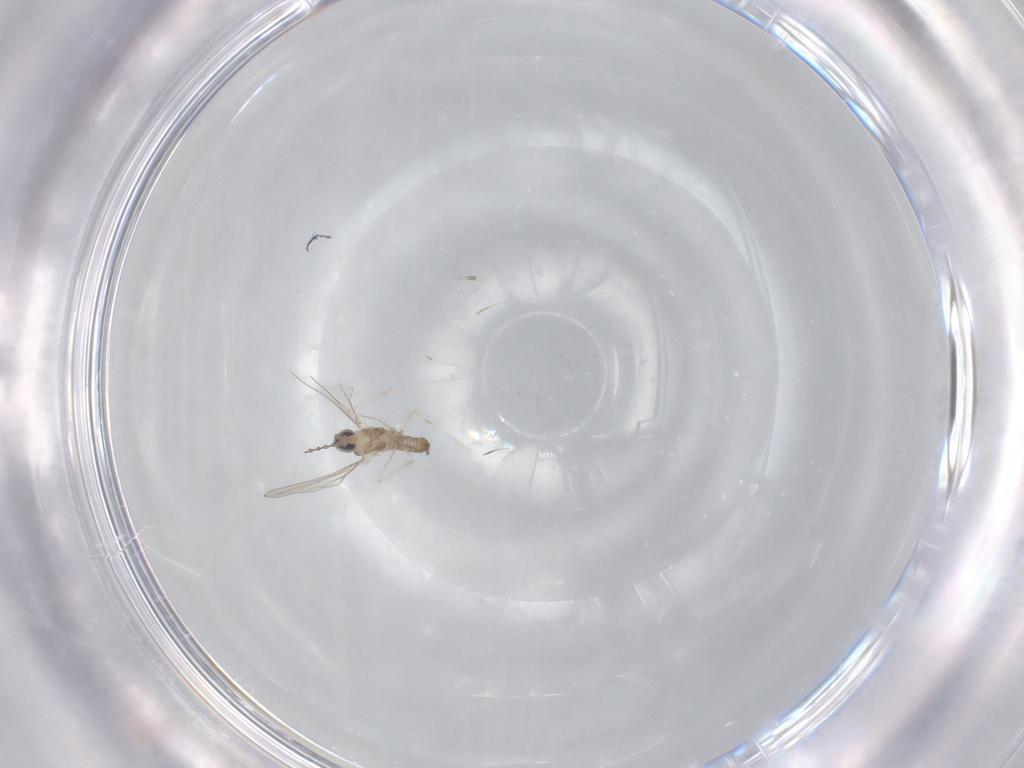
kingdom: Animalia
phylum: Arthropoda
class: Insecta
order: Diptera
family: Cecidomyiidae
